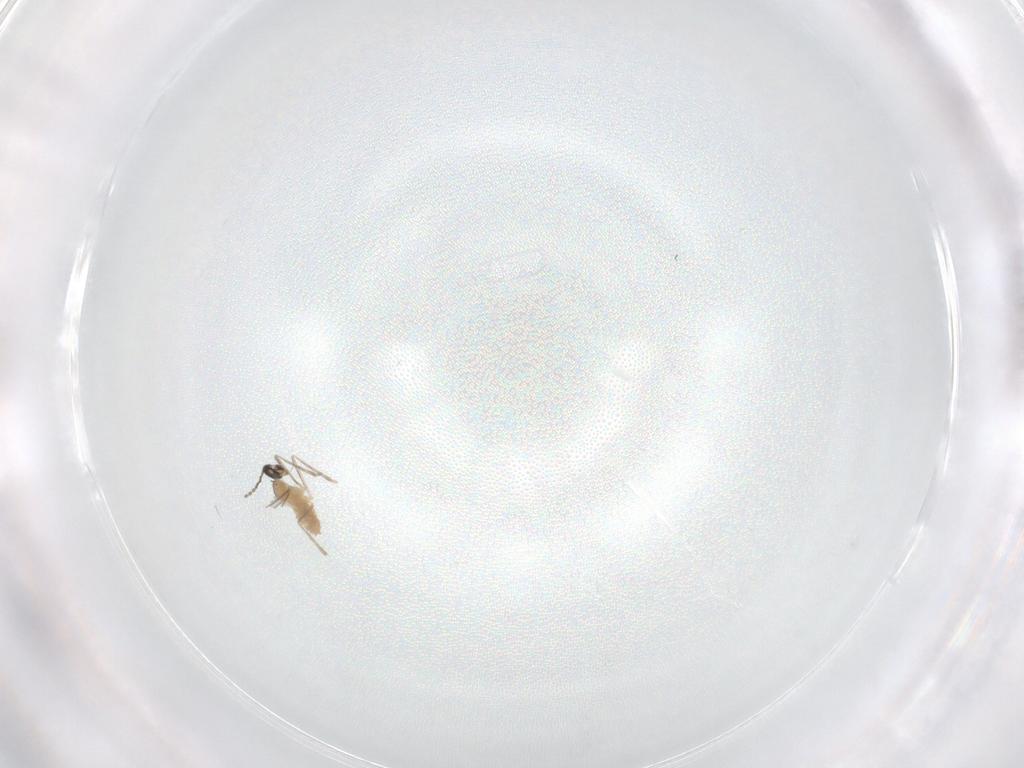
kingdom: Animalia
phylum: Arthropoda
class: Insecta
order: Diptera
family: Cecidomyiidae
